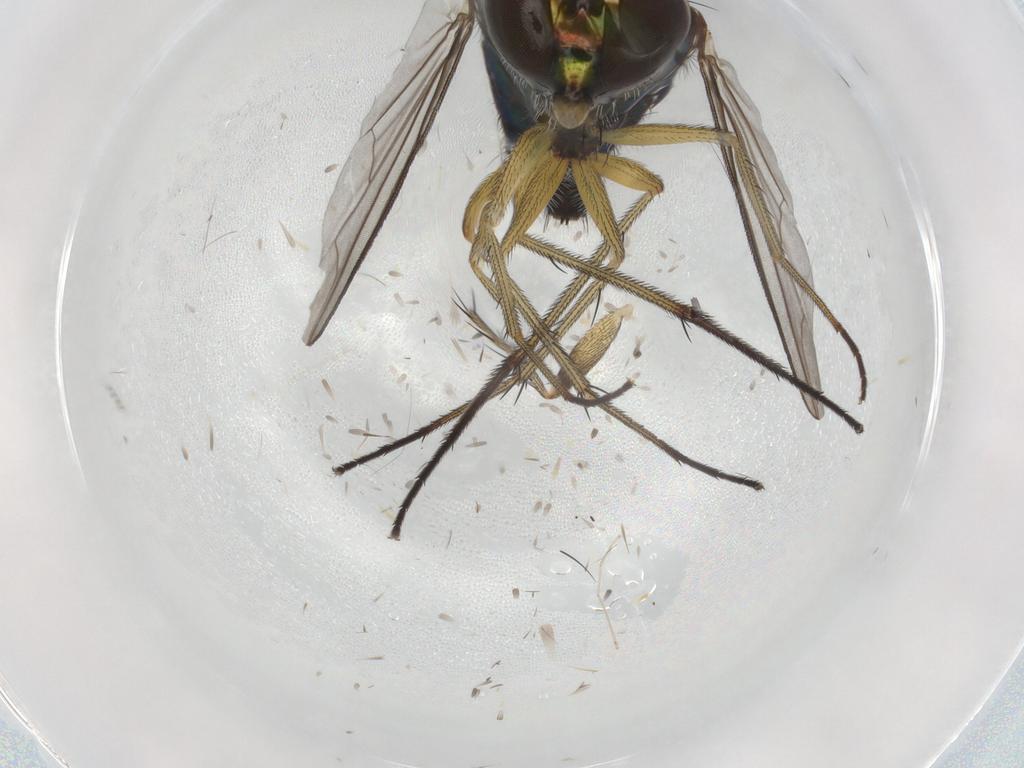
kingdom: Animalia
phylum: Arthropoda
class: Insecta
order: Diptera
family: Dolichopodidae
